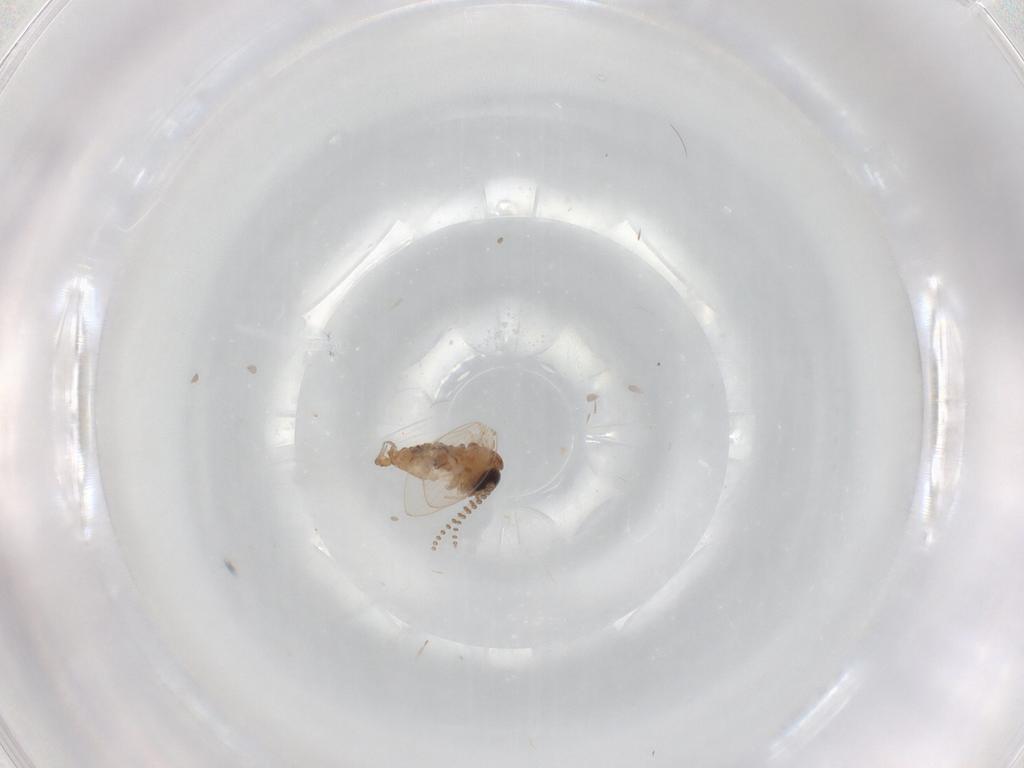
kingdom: Animalia
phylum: Arthropoda
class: Insecta
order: Diptera
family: Psychodidae
